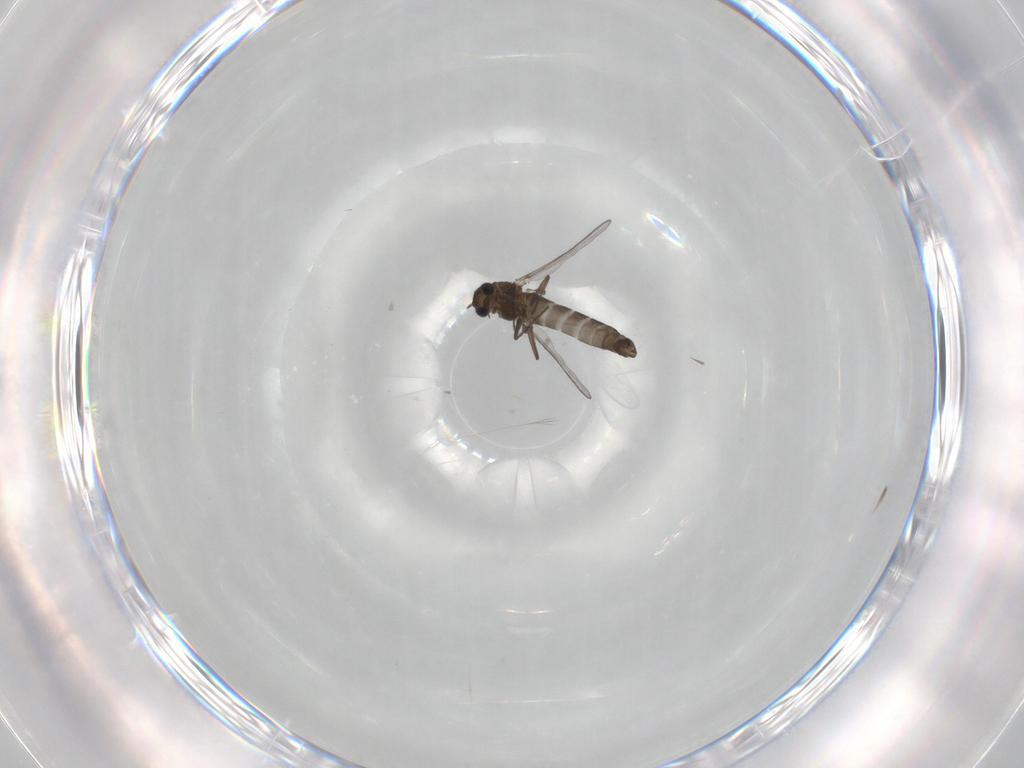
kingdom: Animalia
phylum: Arthropoda
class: Insecta
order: Diptera
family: Chironomidae
